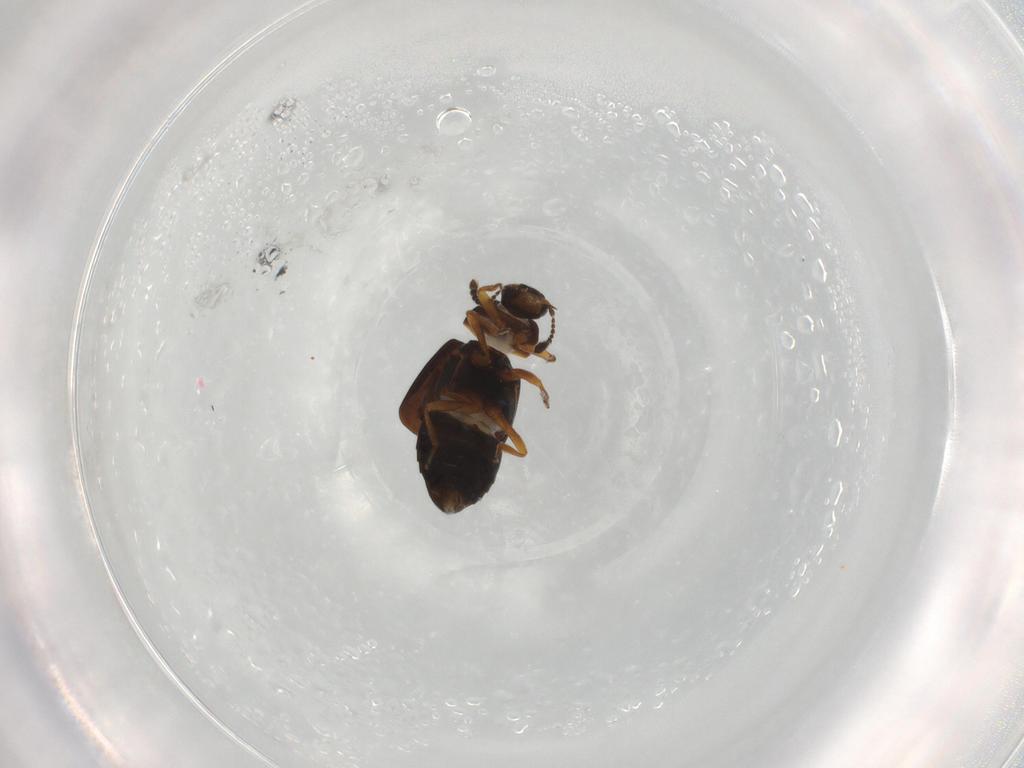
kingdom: Animalia
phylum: Arthropoda
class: Insecta
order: Coleoptera
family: Staphylinidae
